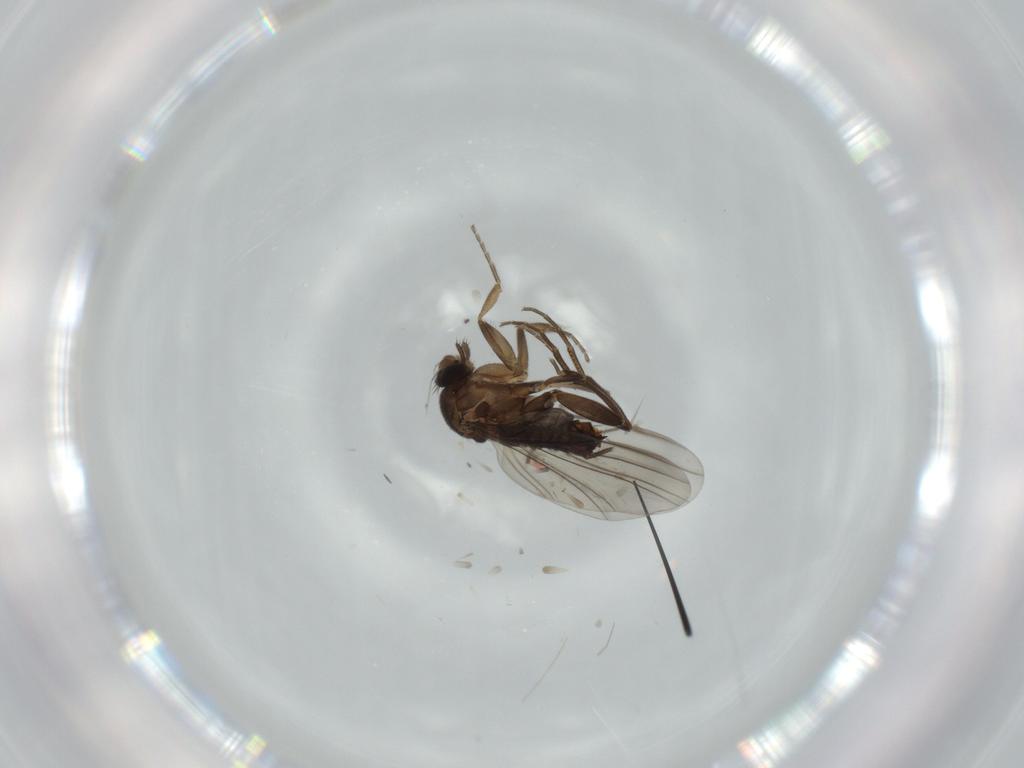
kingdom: Animalia
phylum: Arthropoda
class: Insecta
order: Diptera
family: Cecidomyiidae
